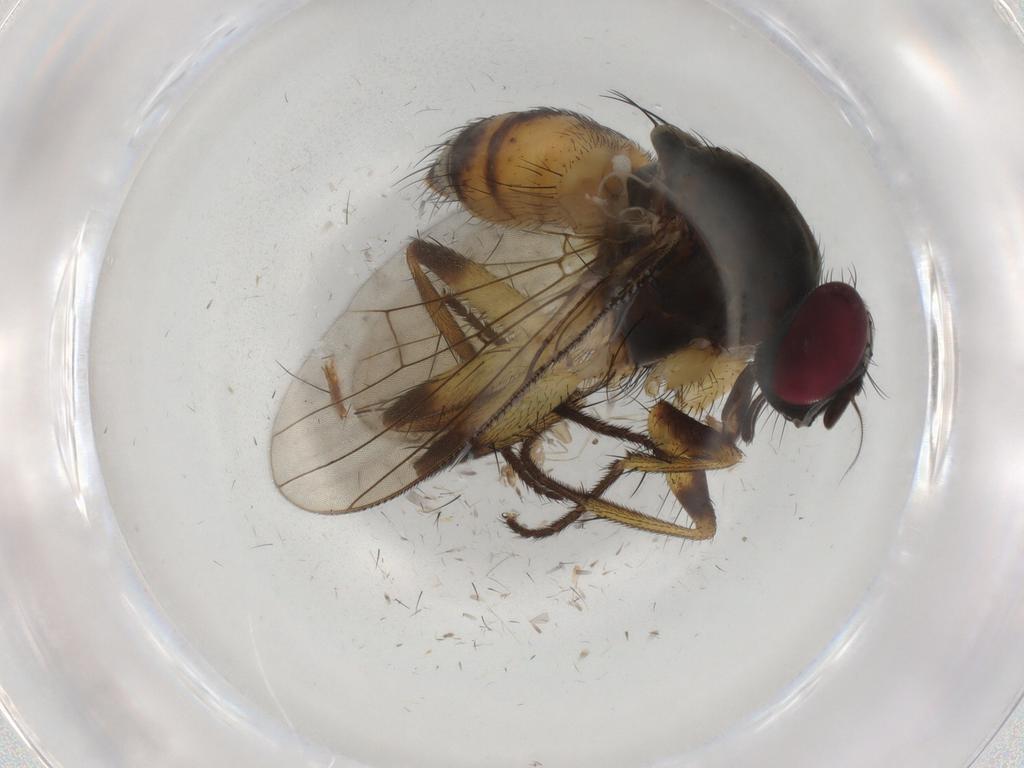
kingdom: Animalia
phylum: Arthropoda
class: Insecta
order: Diptera
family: Muscidae
